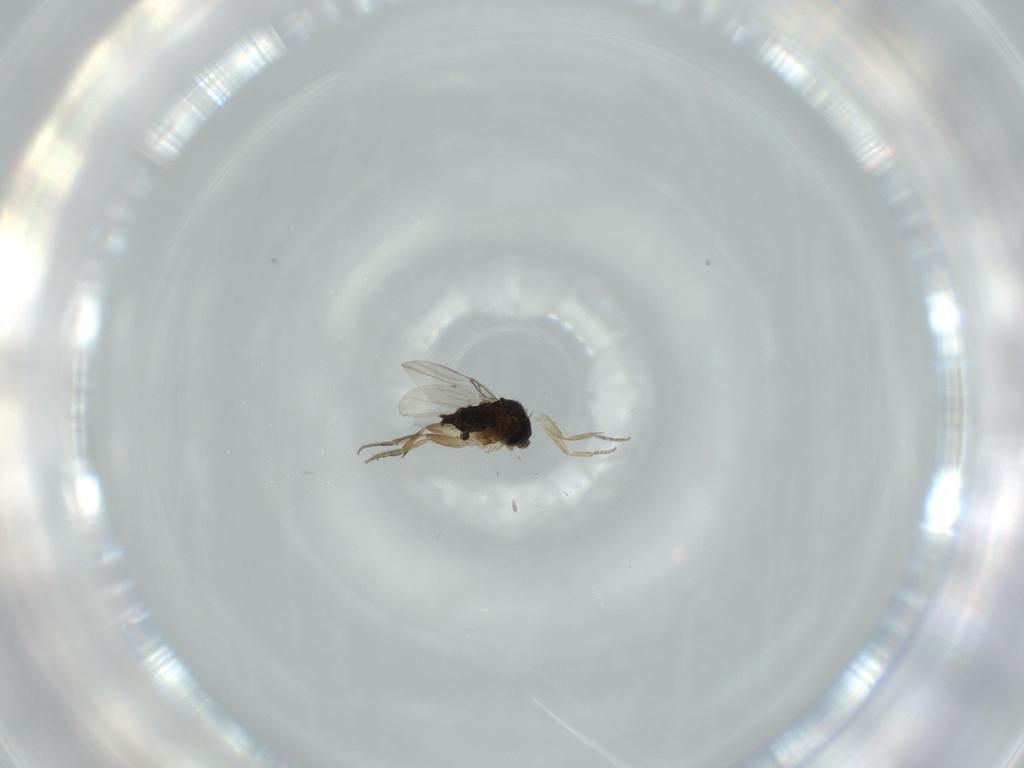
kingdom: Animalia
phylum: Arthropoda
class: Insecta
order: Diptera
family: Phoridae
